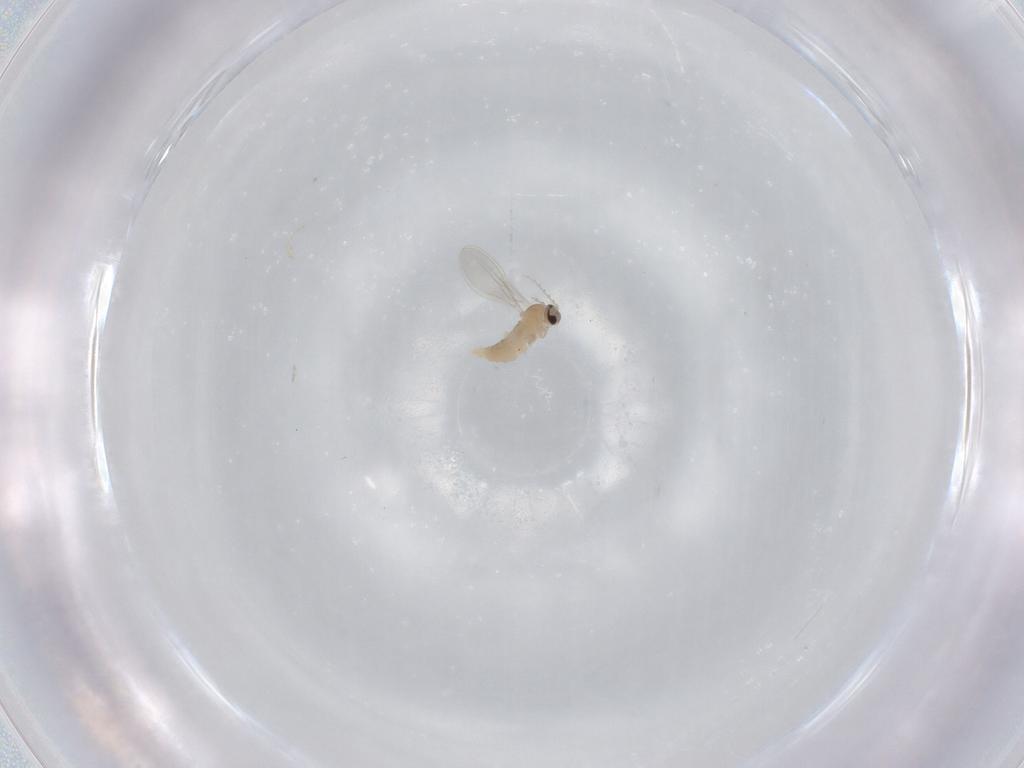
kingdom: Animalia
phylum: Arthropoda
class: Insecta
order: Diptera
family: Cecidomyiidae
